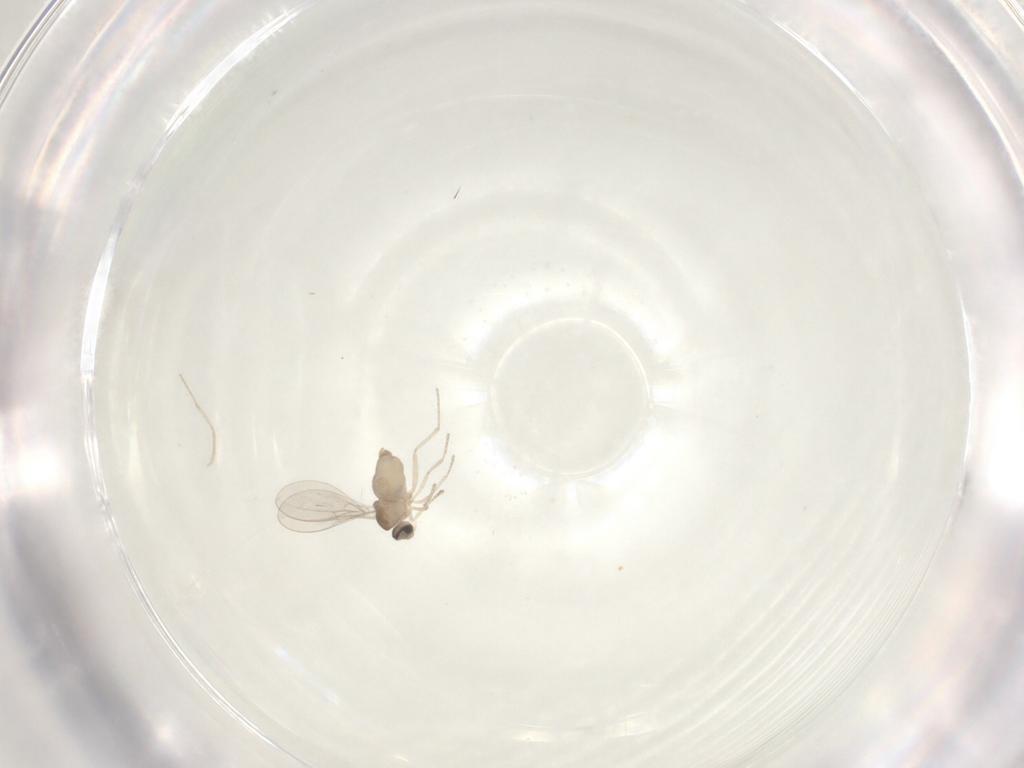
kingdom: Animalia
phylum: Arthropoda
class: Insecta
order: Diptera
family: Cecidomyiidae
